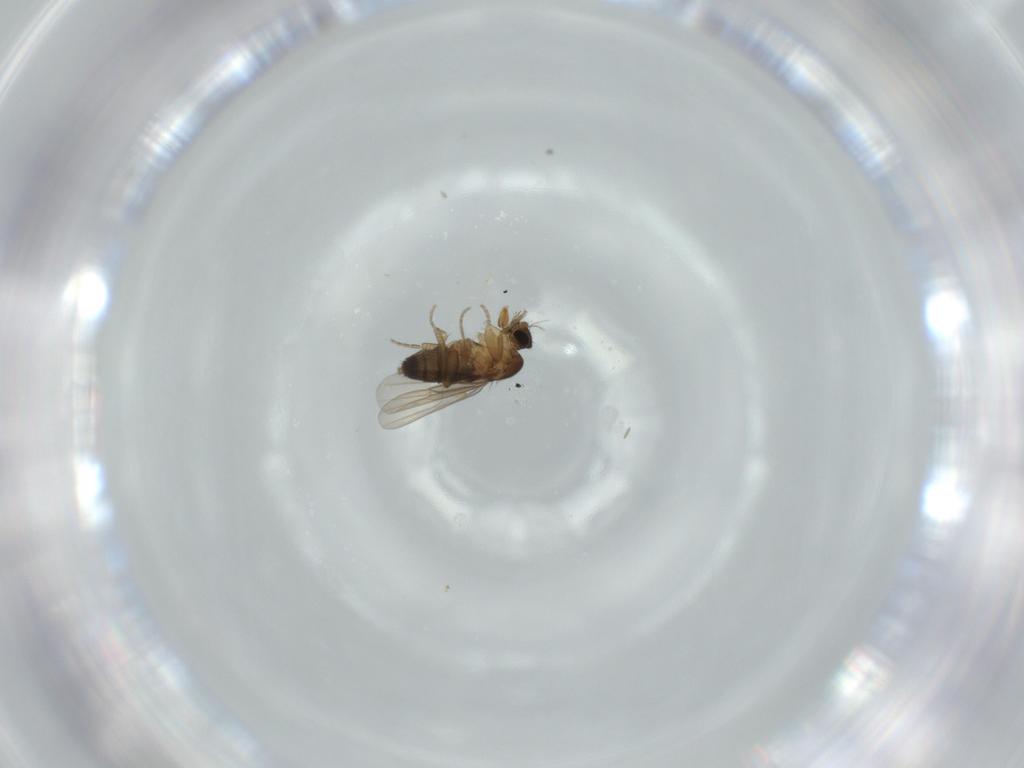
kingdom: Animalia
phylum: Arthropoda
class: Insecta
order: Diptera
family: Phoridae
